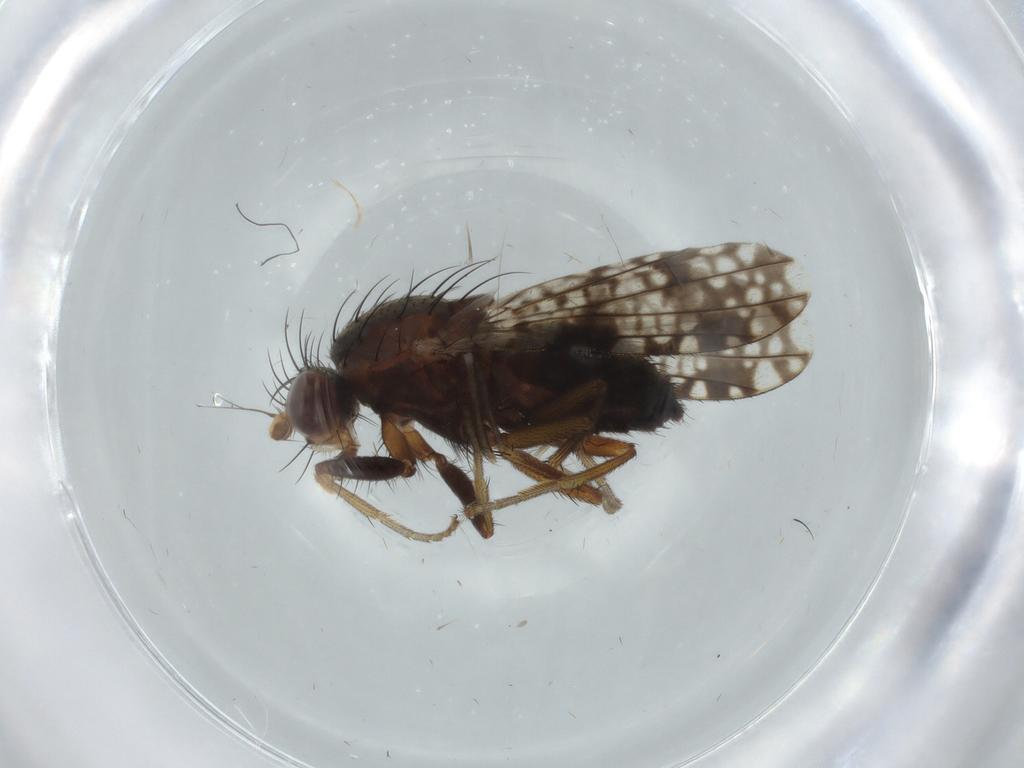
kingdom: Animalia
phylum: Arthropoda
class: Insecta
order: Diptera
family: Tephritidae
